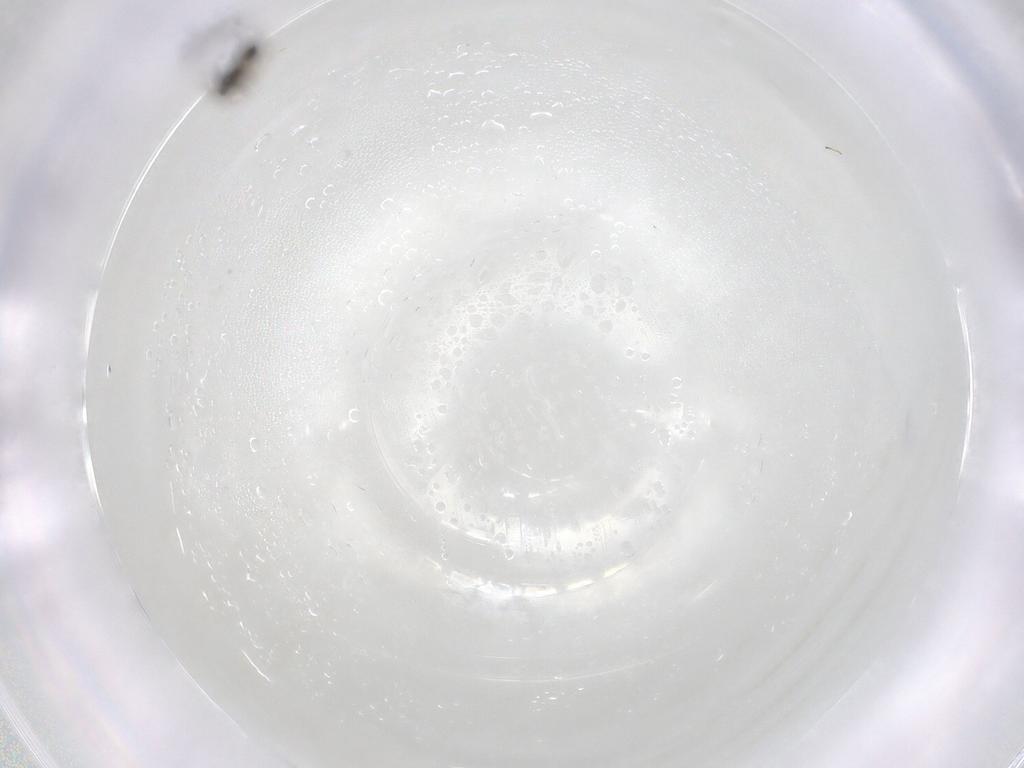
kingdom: Animalia
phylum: Arthropoda
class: Insecta
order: Hymenoptera
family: Eulophidae
